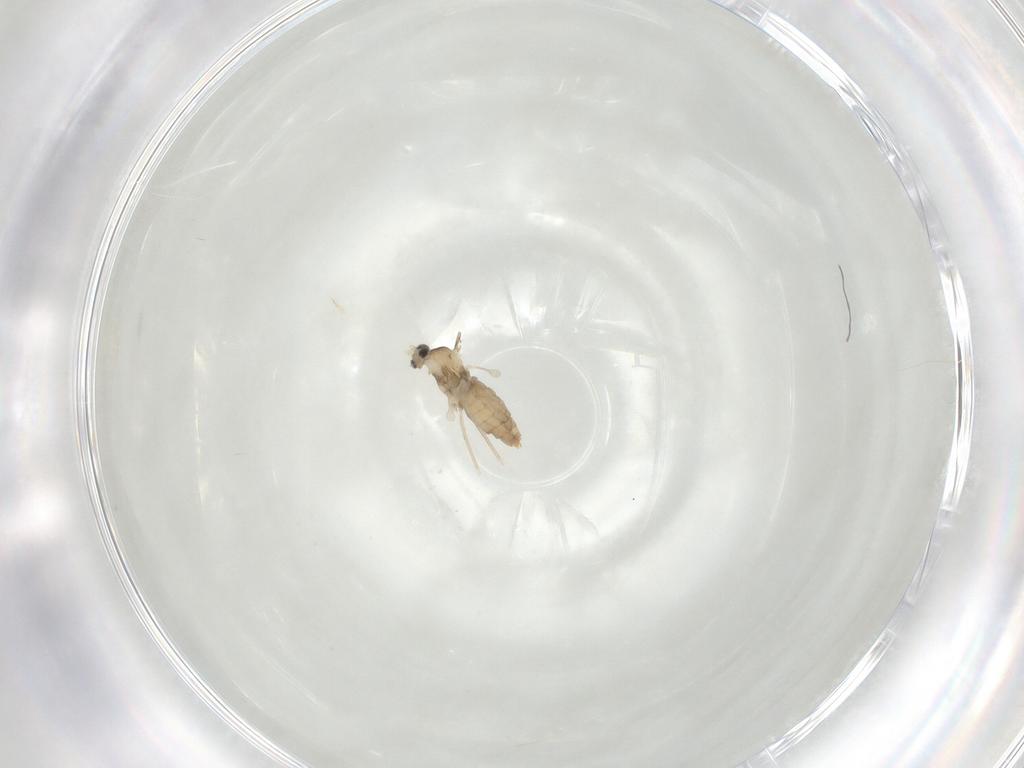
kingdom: Animalia
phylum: Arthropoda
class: Insecta
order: Diptera
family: Cecidomyiidae
